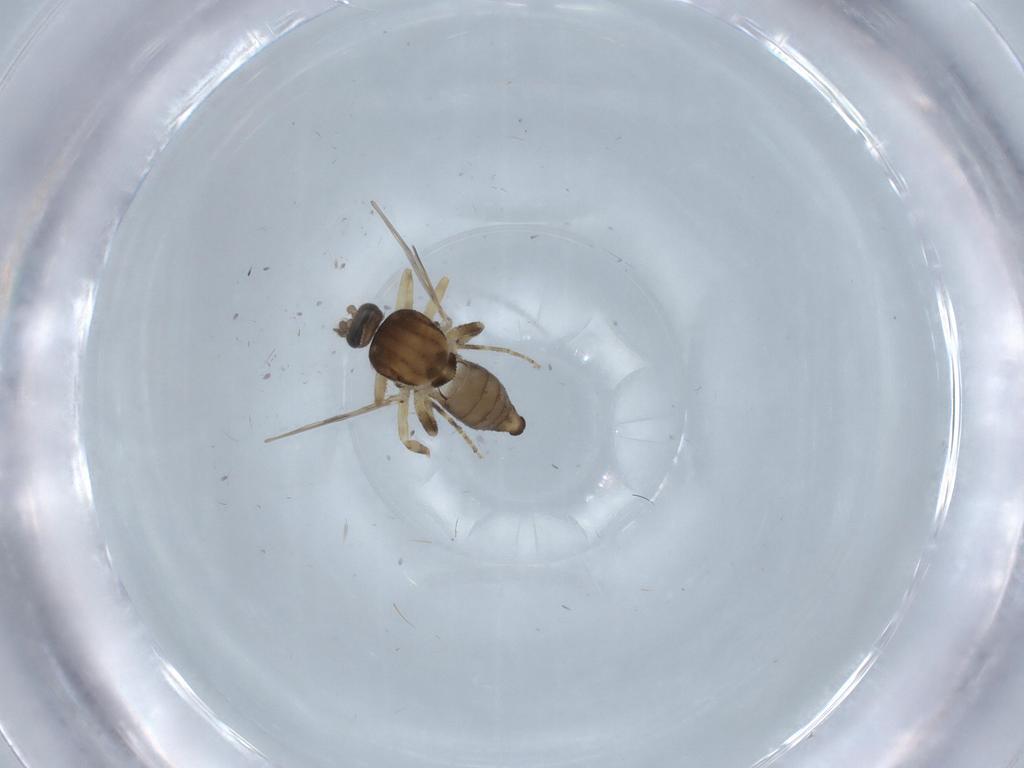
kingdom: Animalia
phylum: Arthropoda
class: Insecta
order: Diptera
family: Ceratopogonidae
